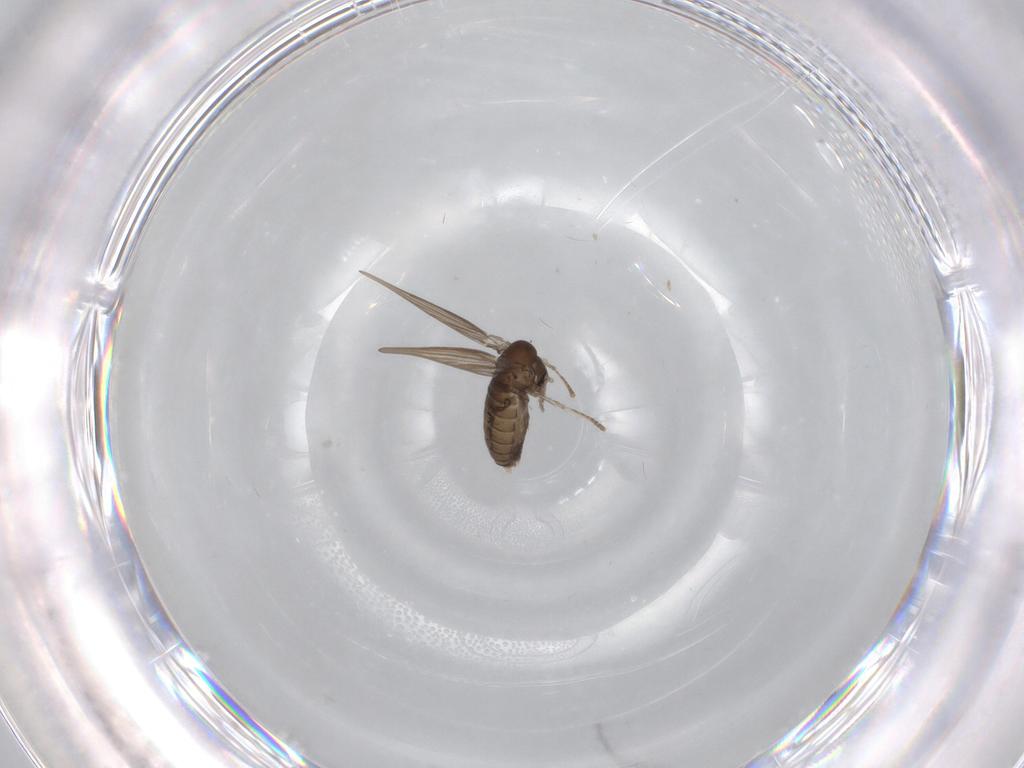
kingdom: Animalia
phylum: Arthropoda
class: Insecta
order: Diptera
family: Psychodidae
